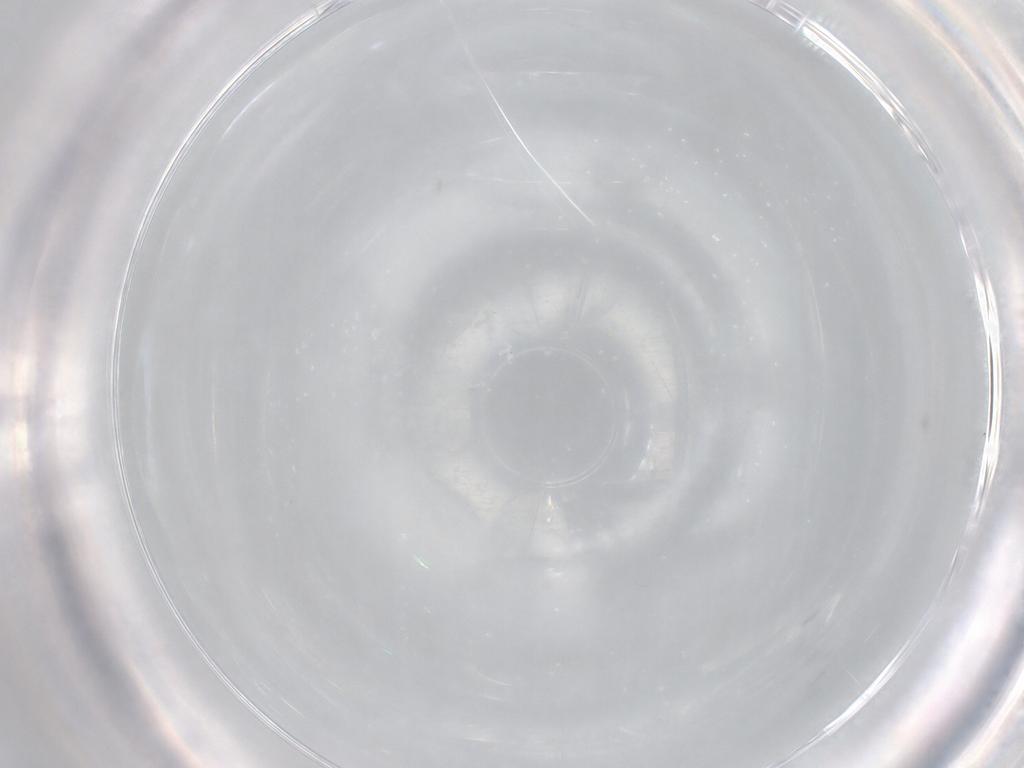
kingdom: Animalia
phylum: Arthropoda
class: Insecta
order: Diptera
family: Cecidomyiidae
